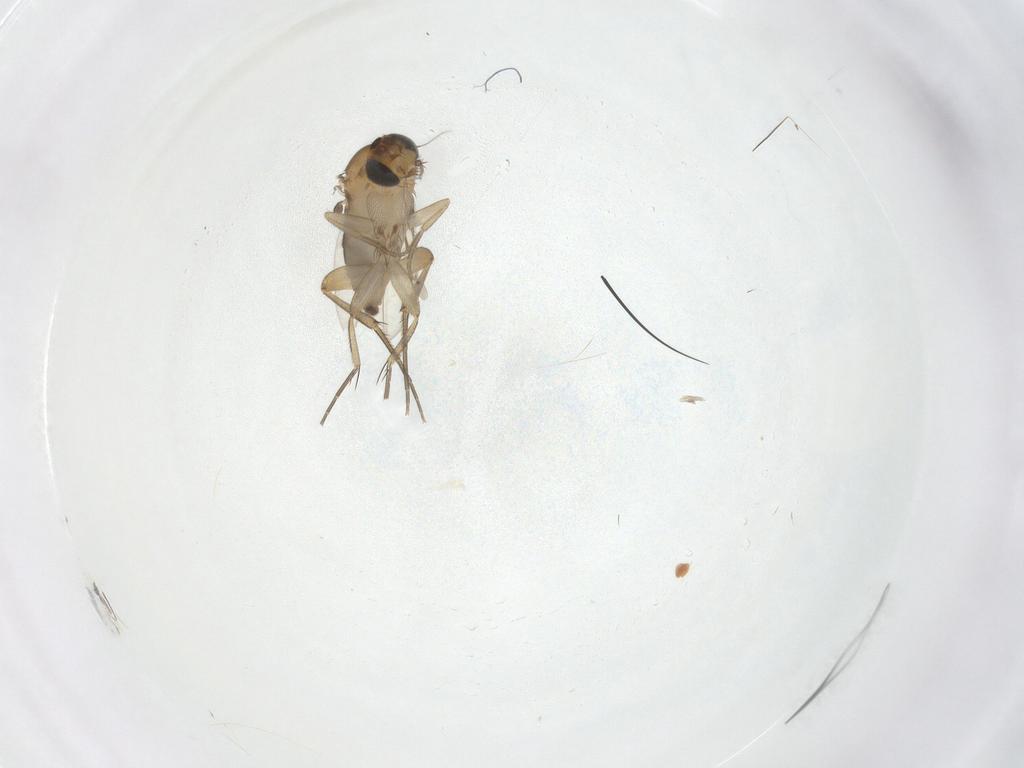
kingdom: Animalia
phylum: Arthropoda
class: Insecta
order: Diptera
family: Phoridae
